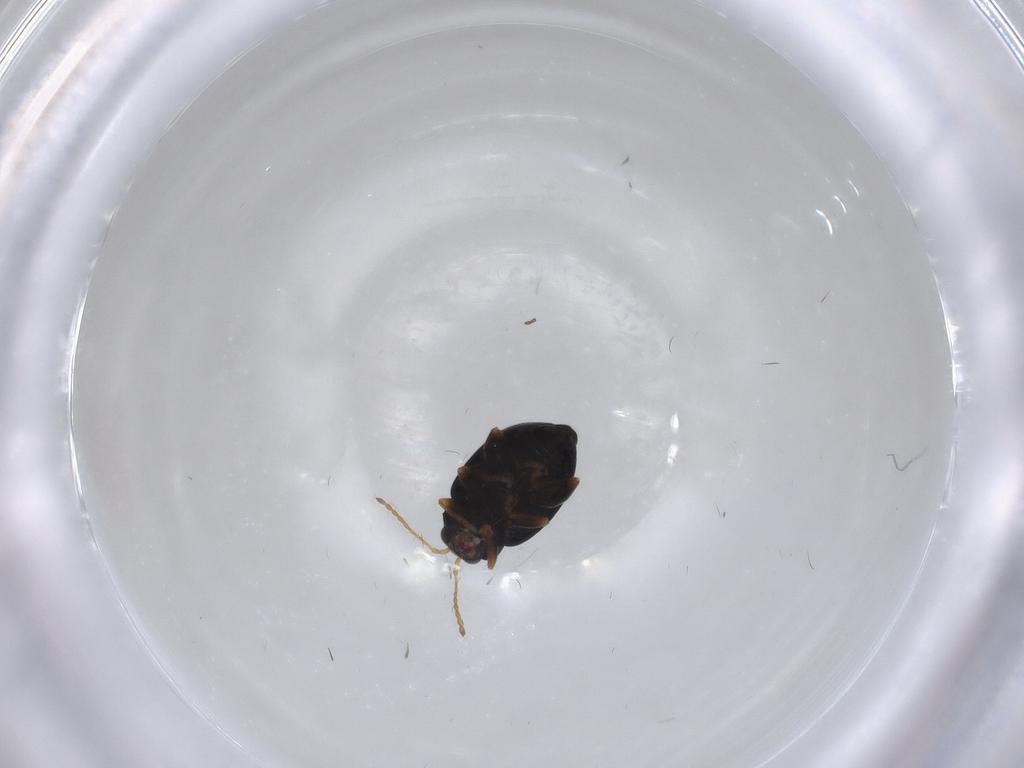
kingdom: Animalia
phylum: Arthropoda
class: Insecta
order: Coleoptera
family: Chrysomelidae
